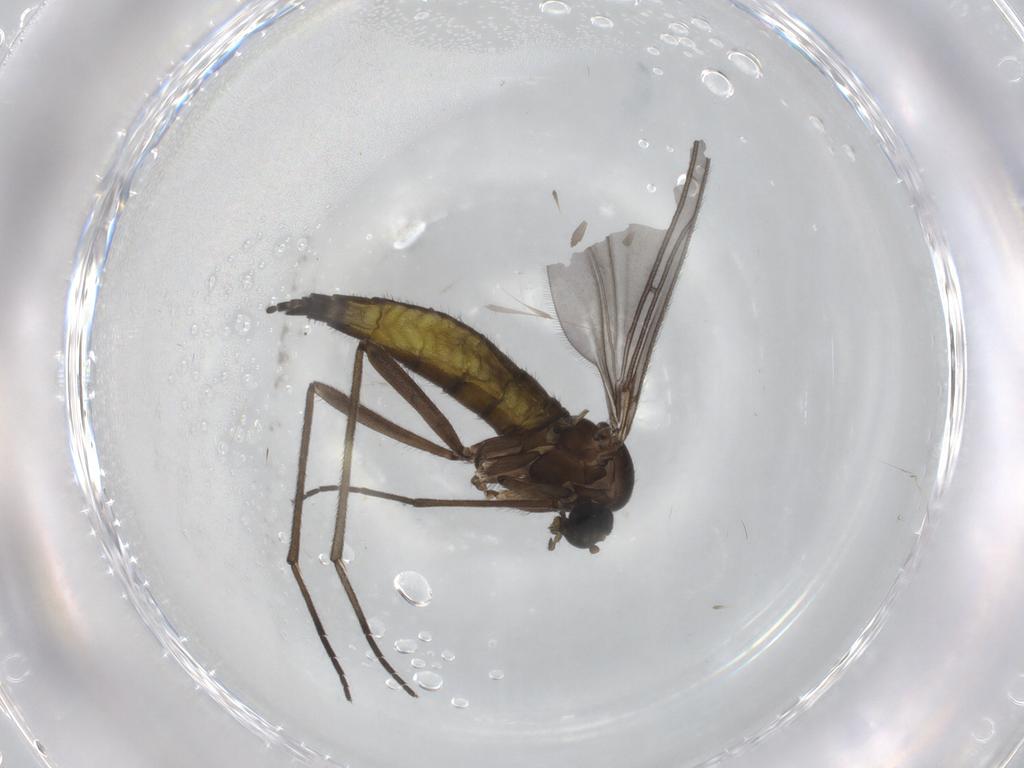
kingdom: Animalia
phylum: Arthropoda
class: Insecta
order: Diptera
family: Sciaridae
